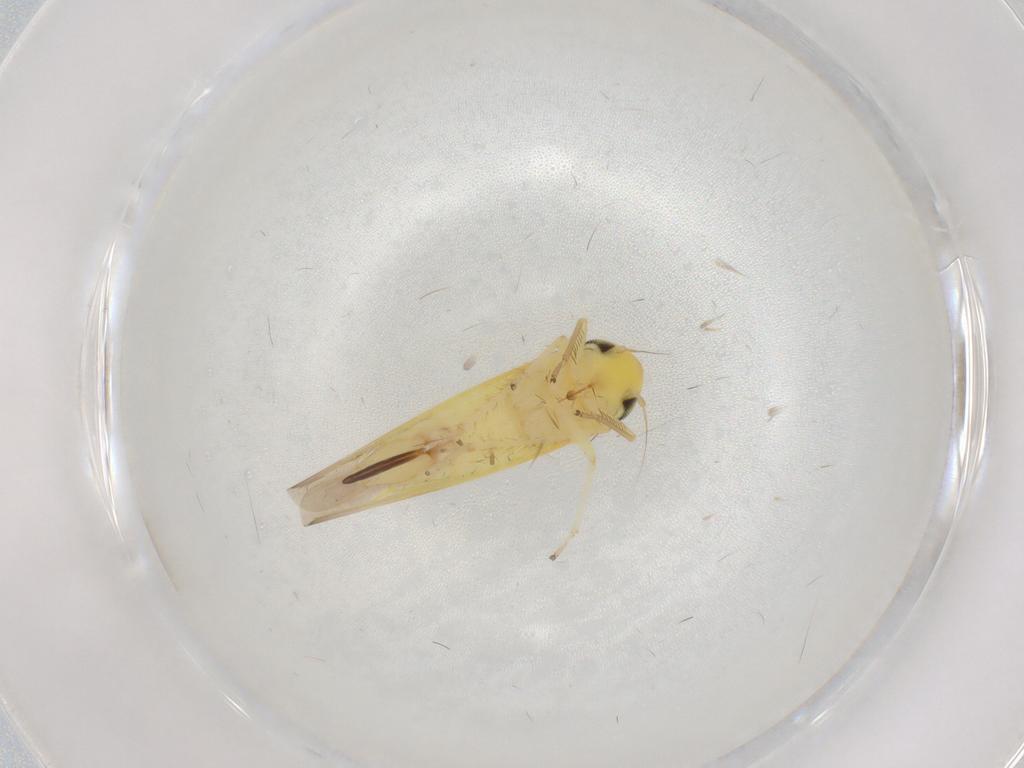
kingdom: Animalia
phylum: Arthropoda
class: Insecta
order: Hemiptera
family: Cicadellidae
